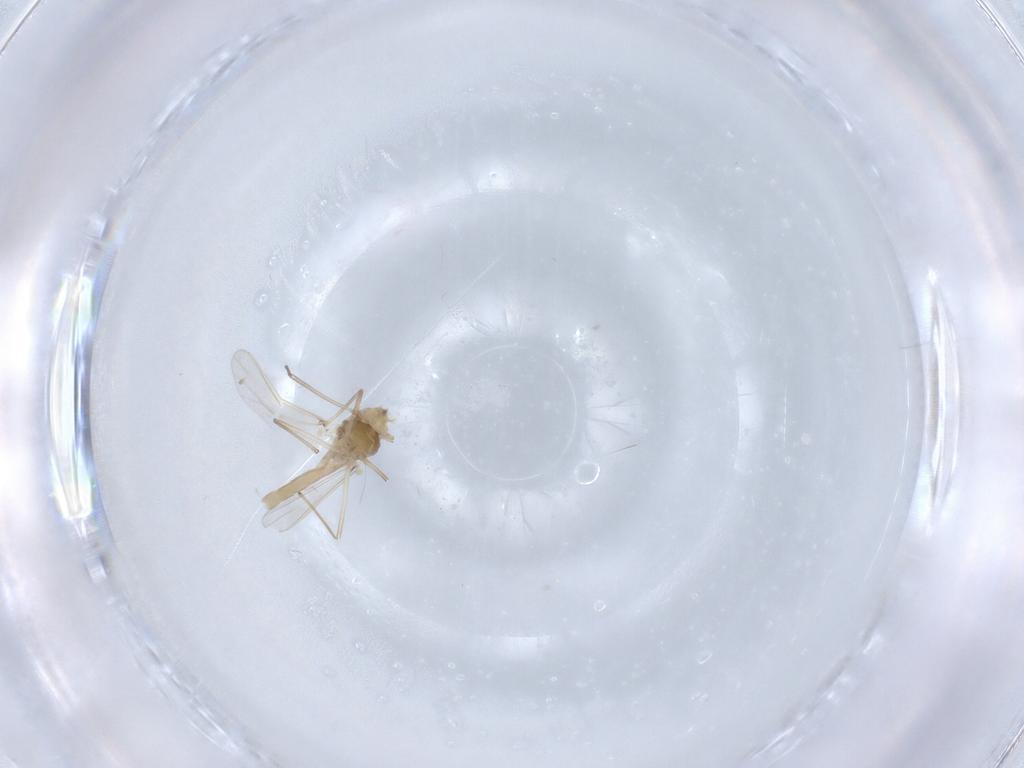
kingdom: Animalia
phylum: Arthropoda
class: Insecta
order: Diptera
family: Chironomidae
